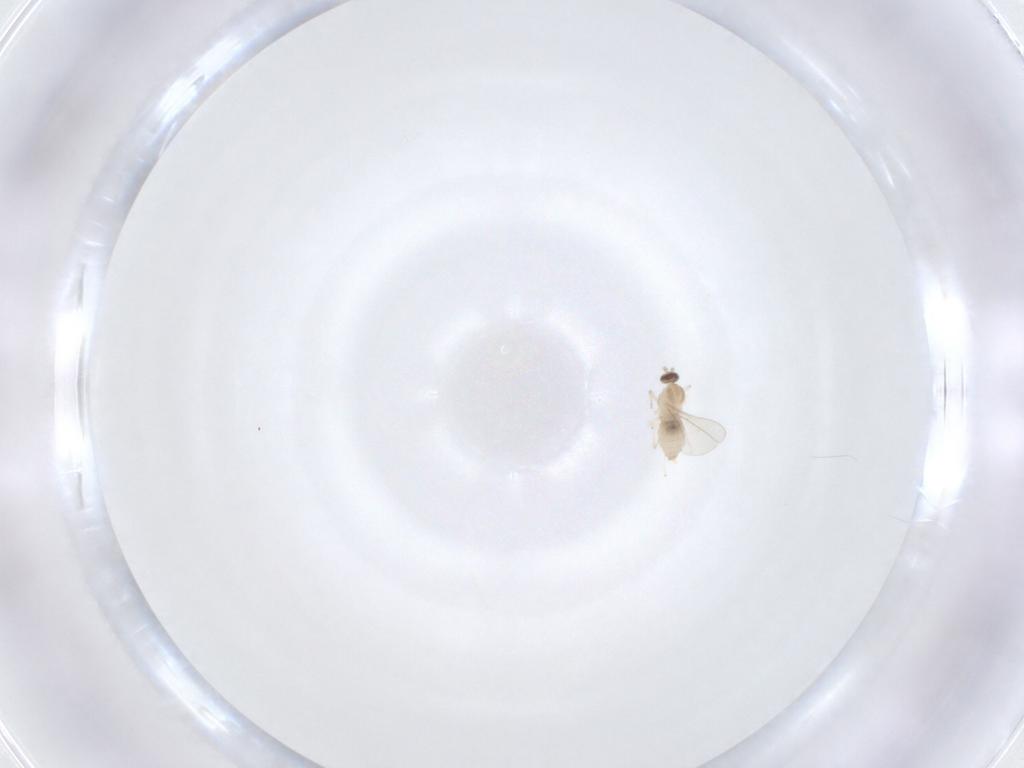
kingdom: Animalia
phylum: Arthropoda
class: Insecta
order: Diptera
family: Cecidomyiidae
